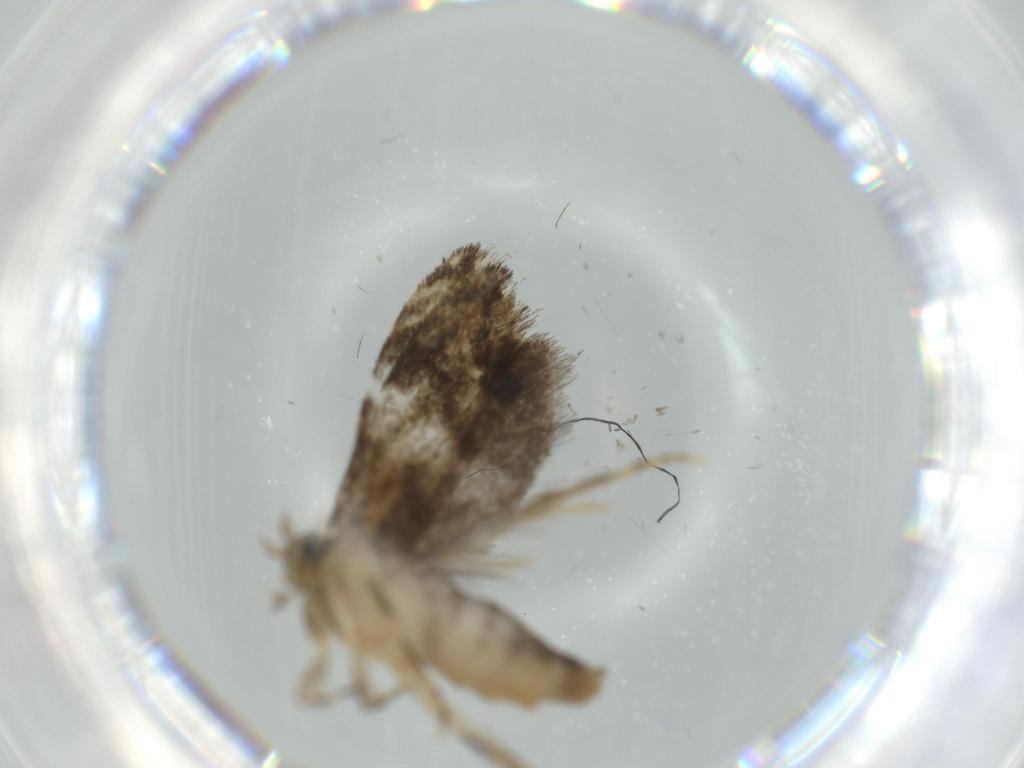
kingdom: Animalia
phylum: Arthropoda
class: Insecta
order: Lepidoptera
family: Tineidae
